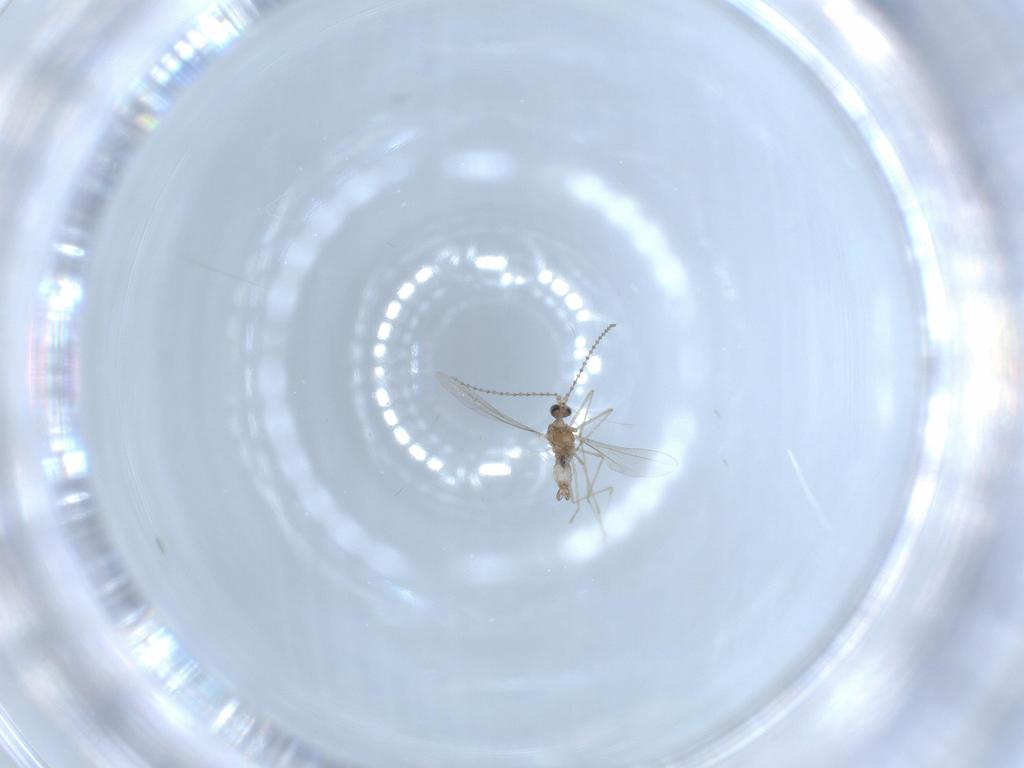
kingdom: Animalia
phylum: Arthropoda
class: Insecta
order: Diptera
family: Cecidomyiidae
